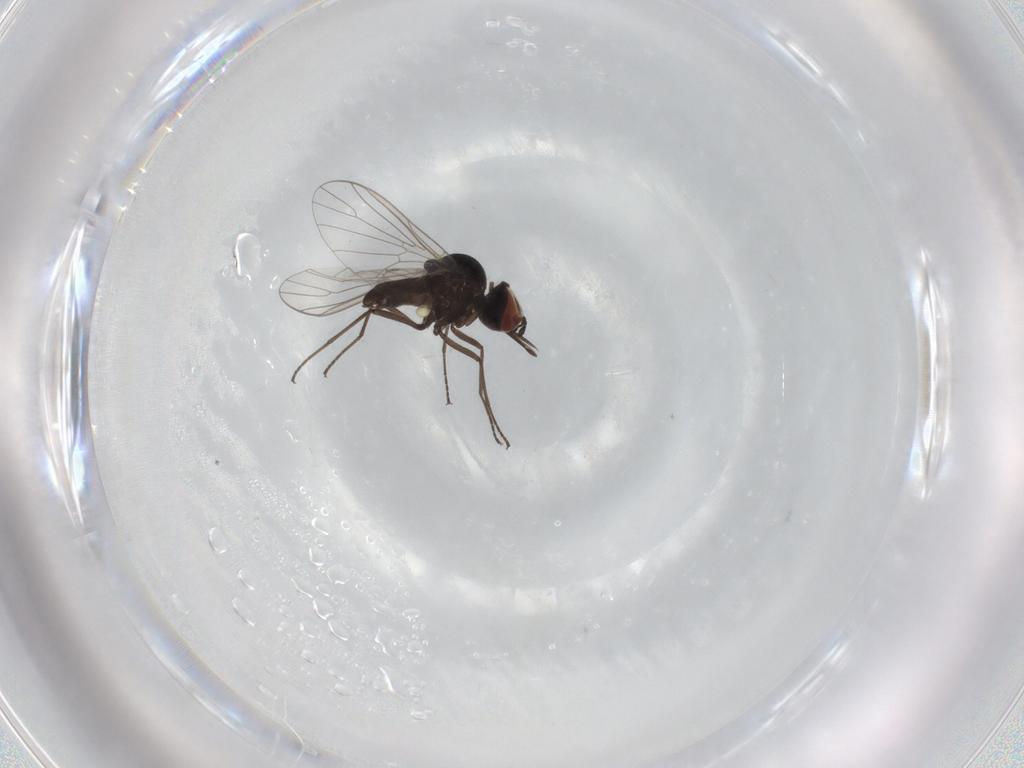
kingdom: Animalia
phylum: Arthropoda
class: Insecta
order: Diptera
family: Bombyliidae
